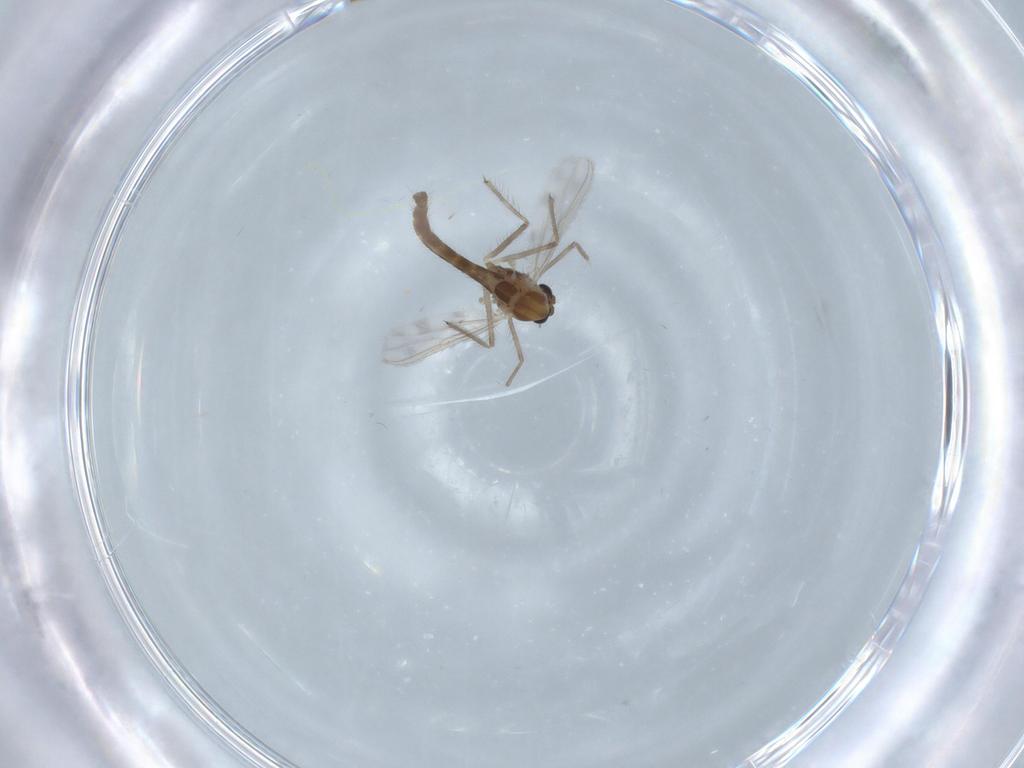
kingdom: Animalia
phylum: Arthropoda
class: Insecta
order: Diptera
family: Chironomidae
